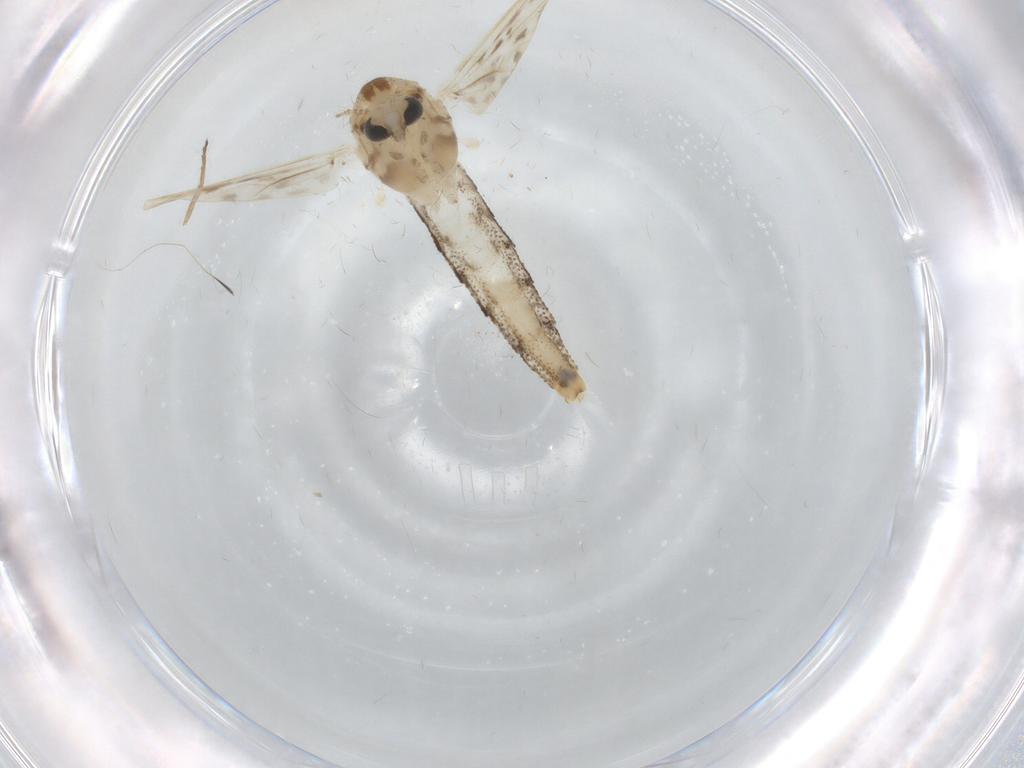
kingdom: Animalia
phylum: Arthropoda
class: Insecta
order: Diptera
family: Chaoboridae
